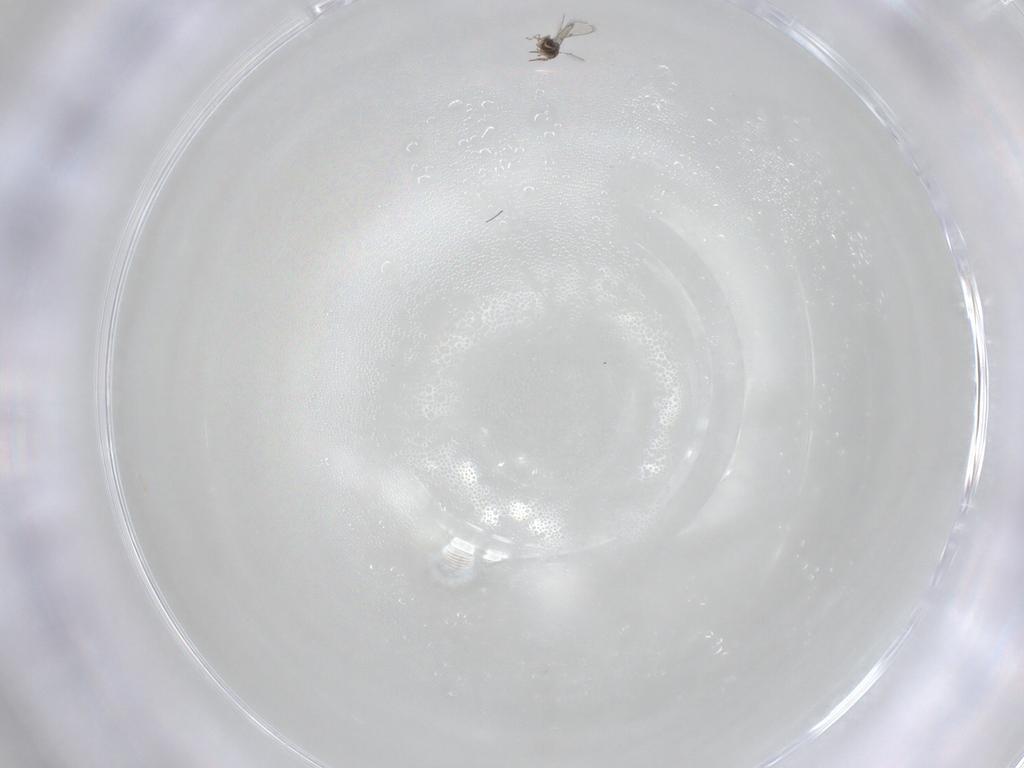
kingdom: Animalia
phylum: Arthropoda
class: Insecta
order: Hymenoptera
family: Trichogrammatidae
